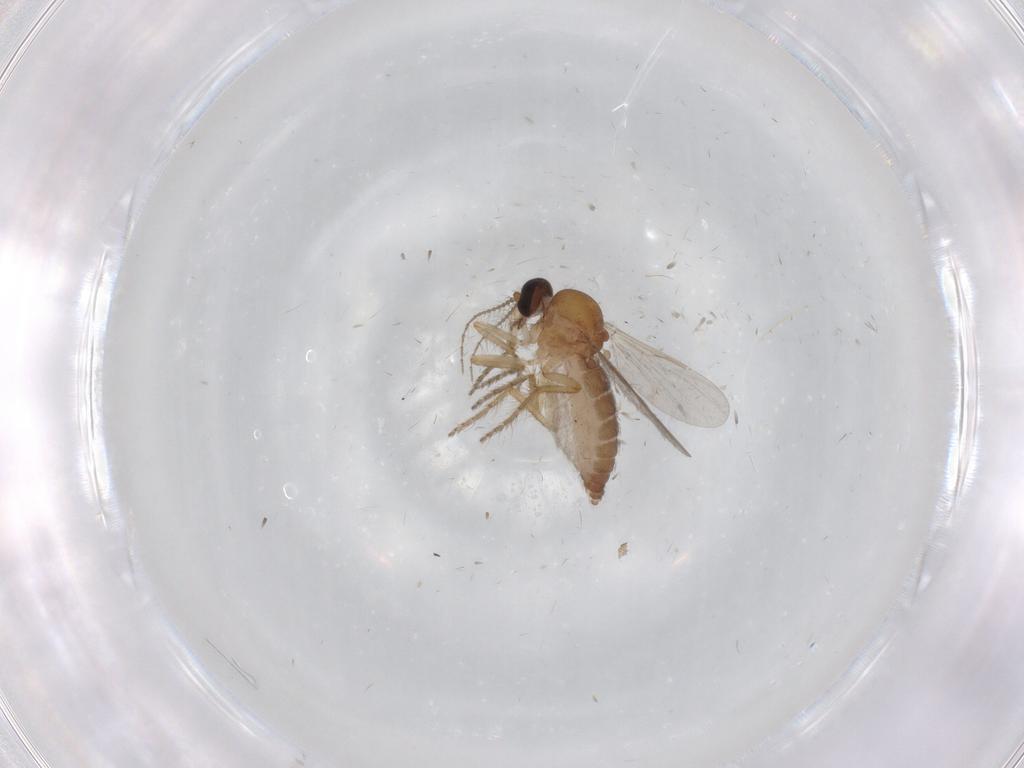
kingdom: Animalia
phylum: Arthropoda
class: Insecta
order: Diptera
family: Ceratopogonidae
